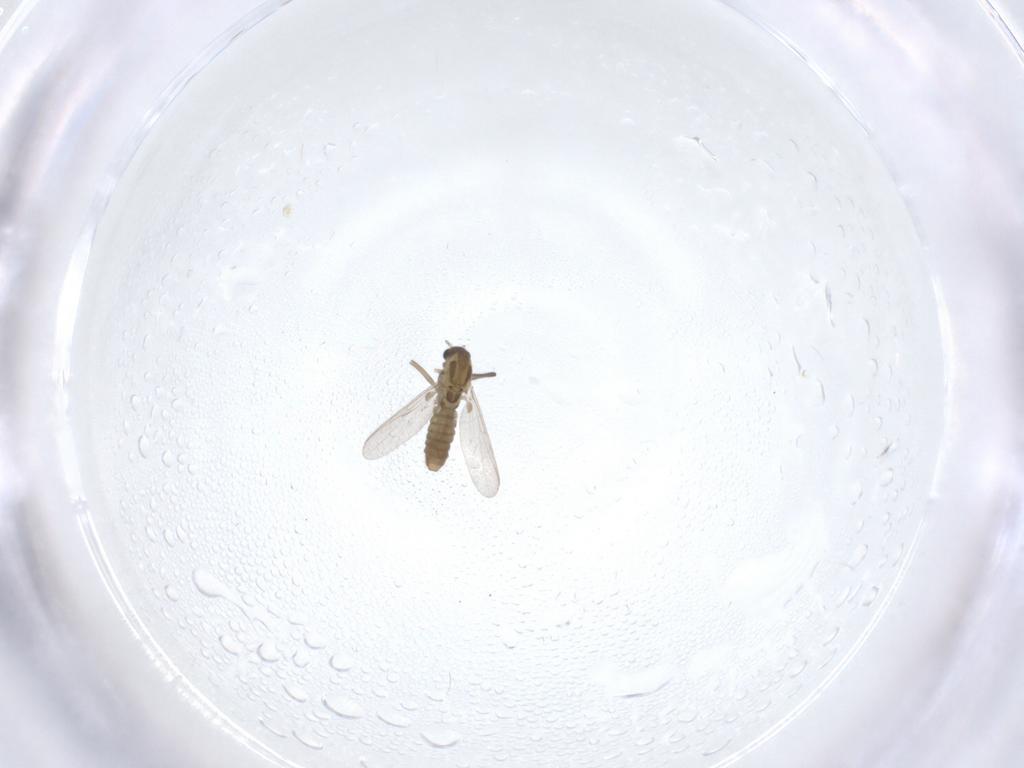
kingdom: Animalia
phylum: Arthropoda
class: Insecta
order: Diptera
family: Chironomidae
